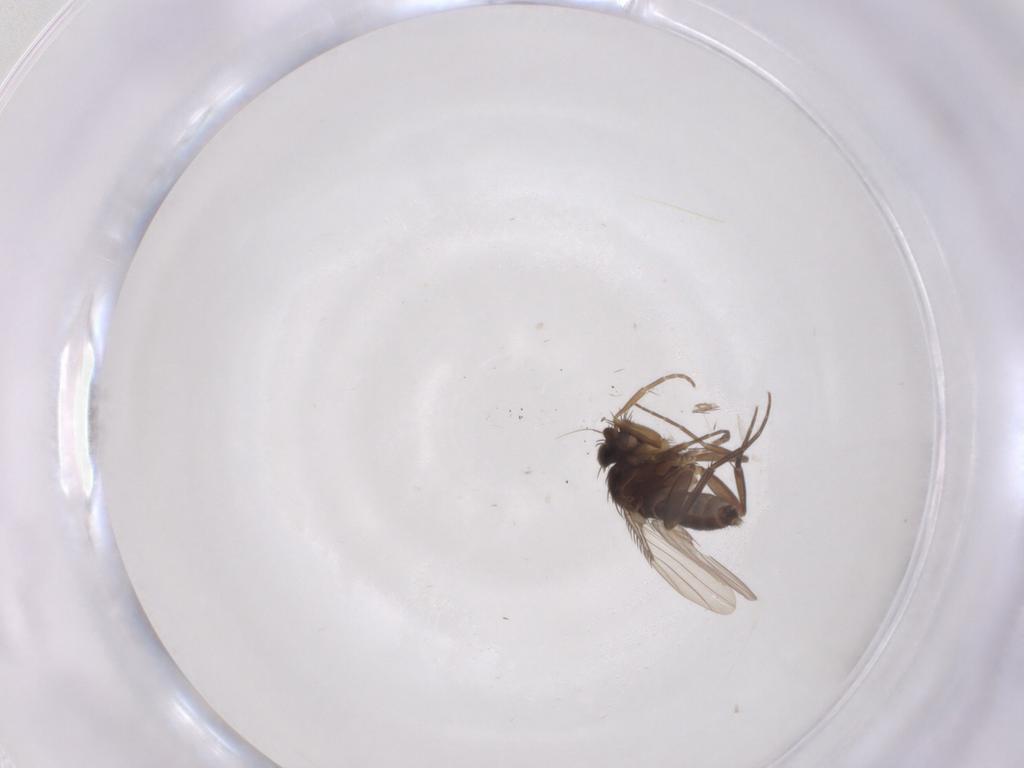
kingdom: Animalia
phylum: Arthropoda
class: Insecta
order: Diptera
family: Phoridae
